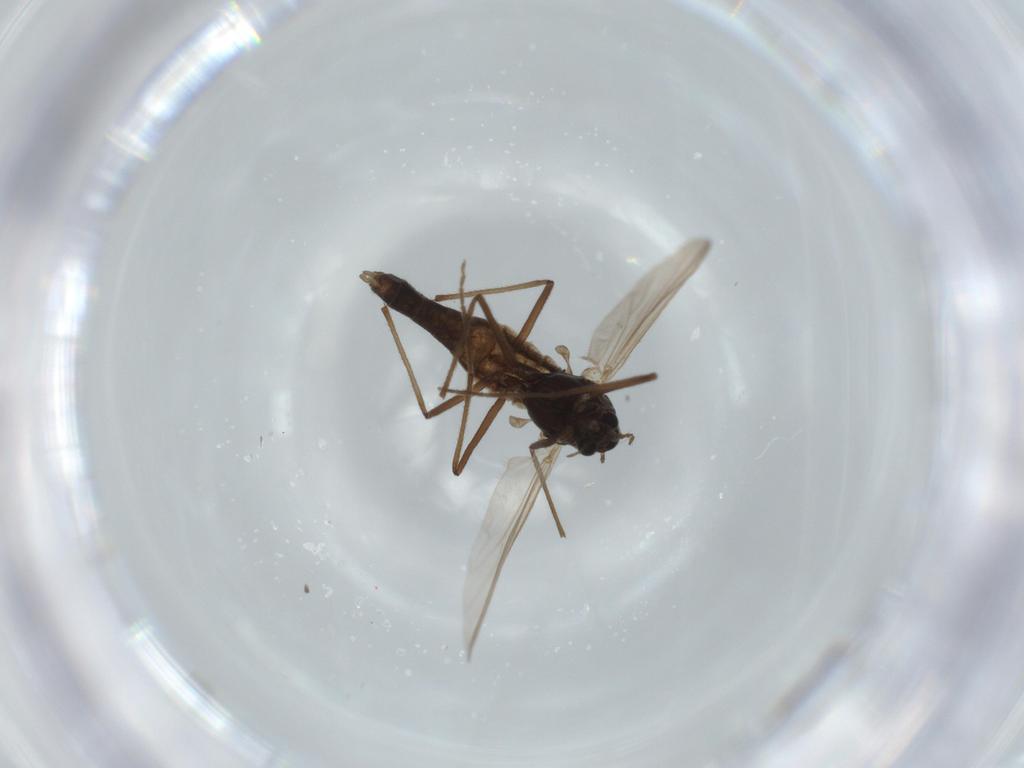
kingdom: Animalia
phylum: Arthropoda
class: Insecta
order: Diptera
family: Chironomidae
